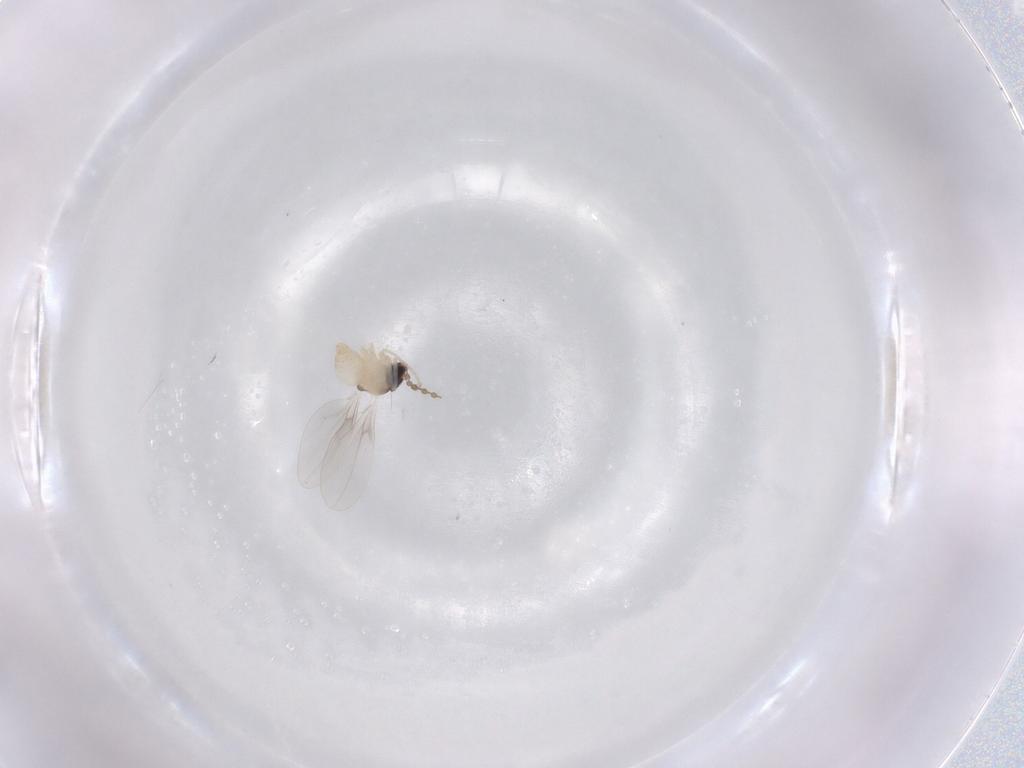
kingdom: Animalia
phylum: Arthropoda
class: Insecta
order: Diptera
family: Cecidomyiidae
